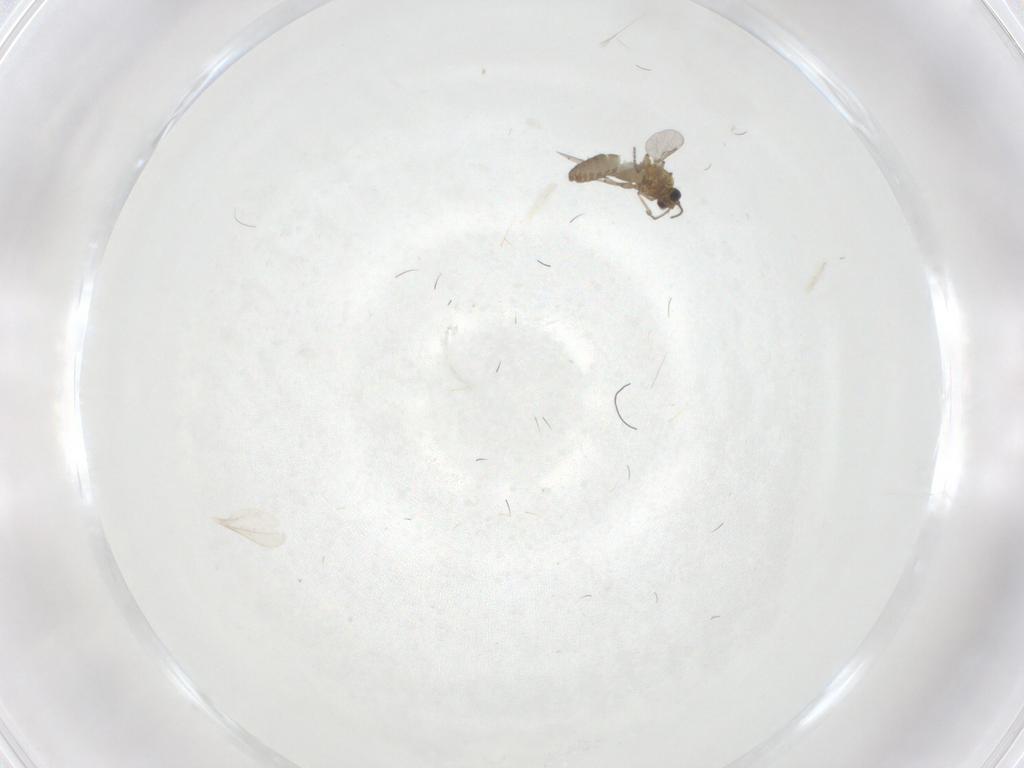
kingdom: Animalia
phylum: Arthropoda
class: Insecta
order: Diptera
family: Ceratopogonidae
